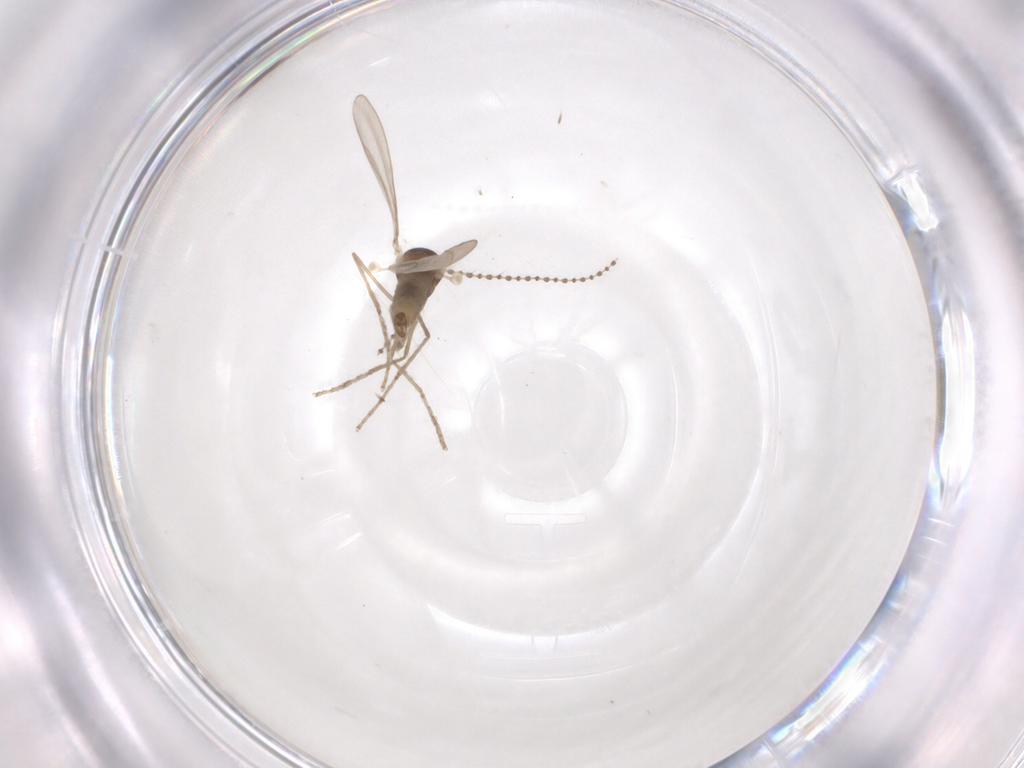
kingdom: Animalia
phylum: Arthropoda
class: Insecta
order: Diptera
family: Cecidomyiidae
